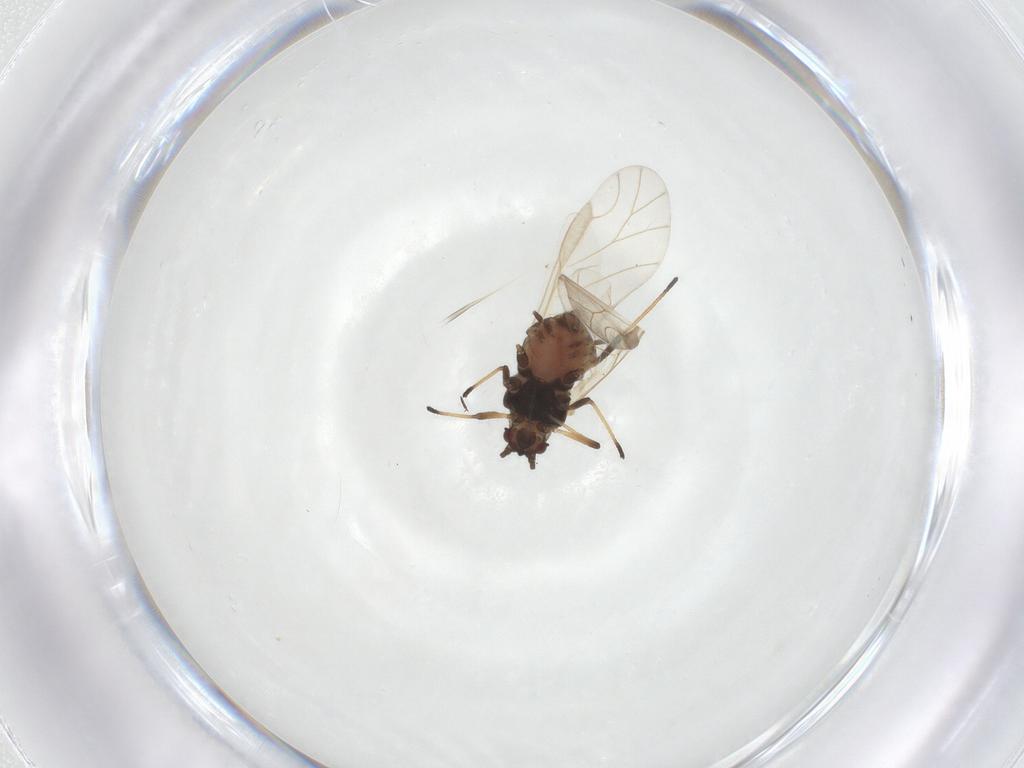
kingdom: Animalia
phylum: Arthropoda
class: Insecta
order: Hemiptera
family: Aphididae
